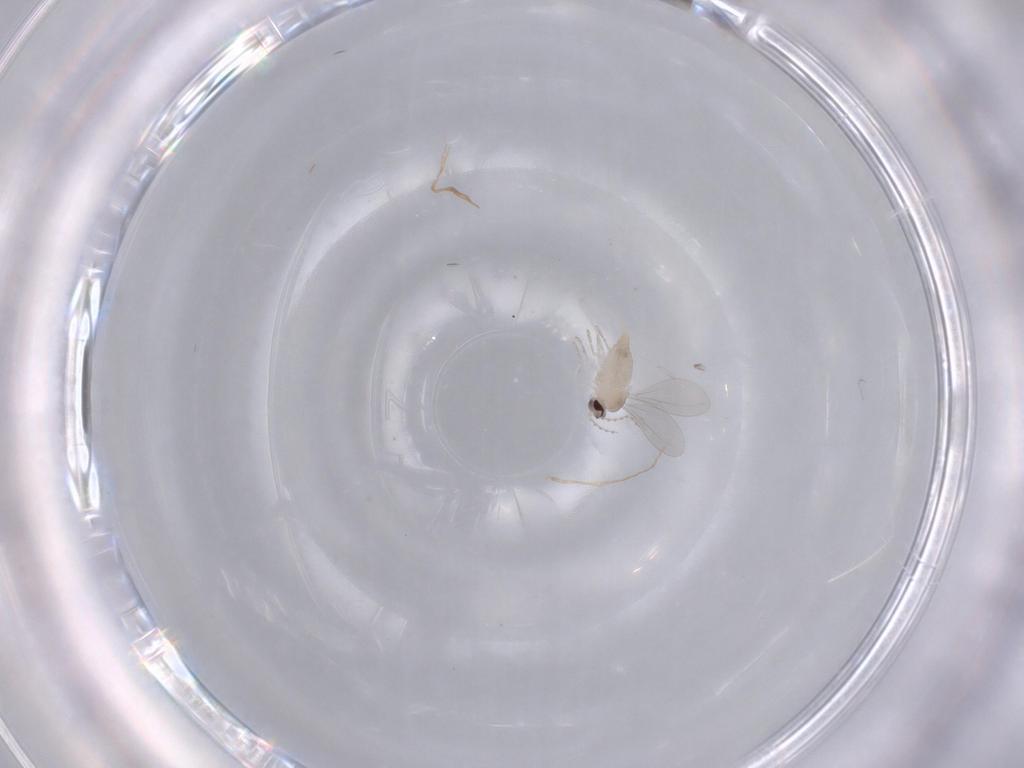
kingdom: Animalia
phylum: Arthropoda
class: Insecta
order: Diptera
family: Cecidomyiidae
